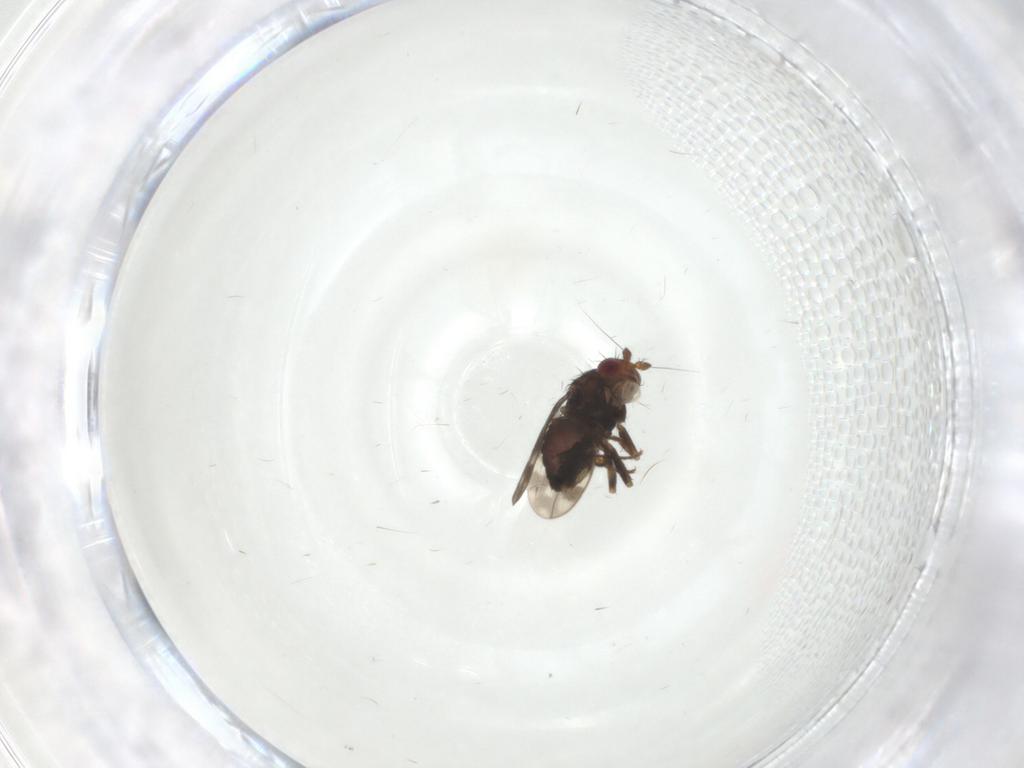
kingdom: Animalia
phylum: Arthropoda
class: Insecta
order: Diptera
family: Sphaeroceridae
